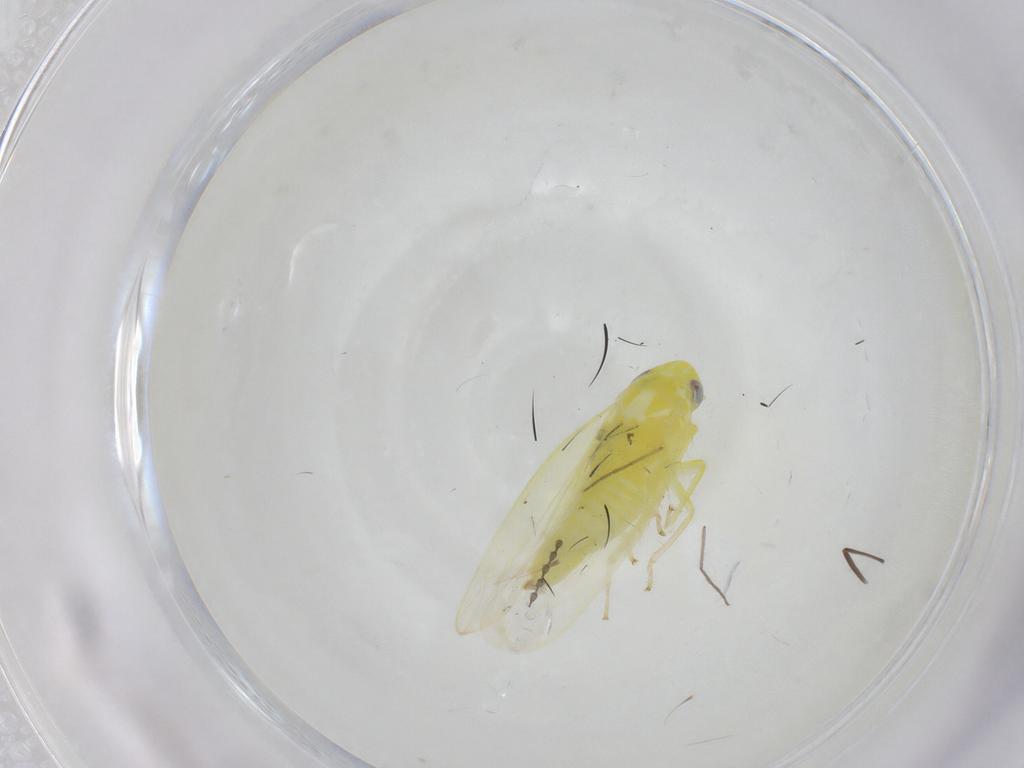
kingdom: Animalia
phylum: Arthropoda
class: Insecta
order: Hemiptera
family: Cicadellidae
